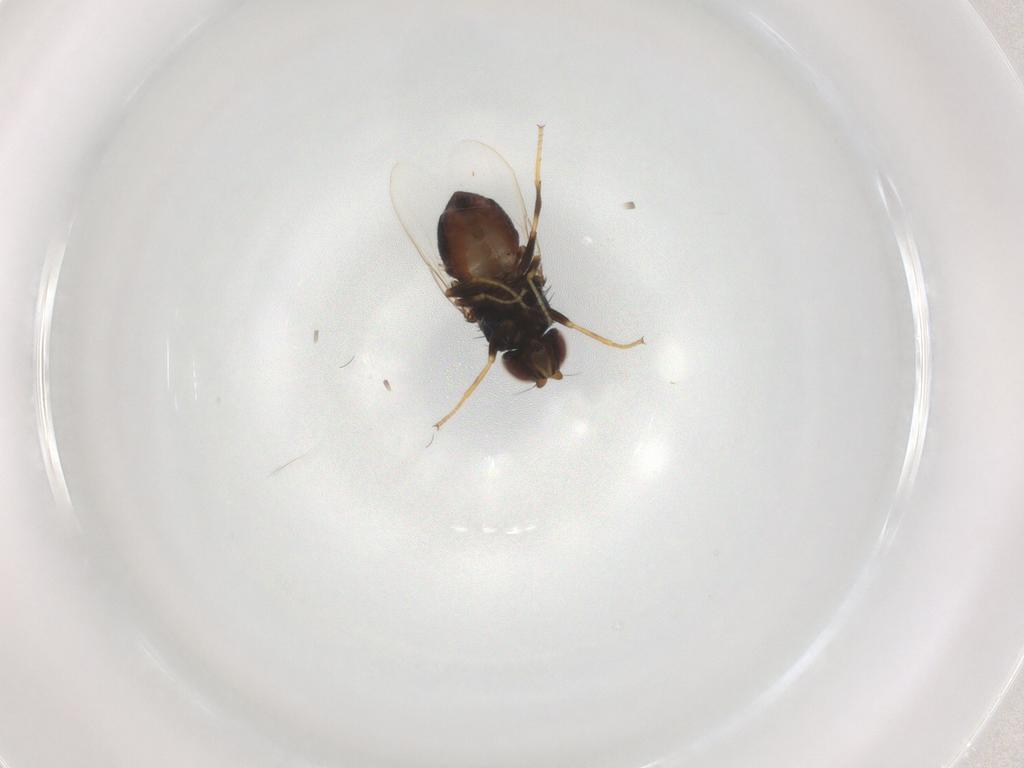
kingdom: Animalia
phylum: Arthropoda
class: Insecta
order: Diptera
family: Chloropidae
